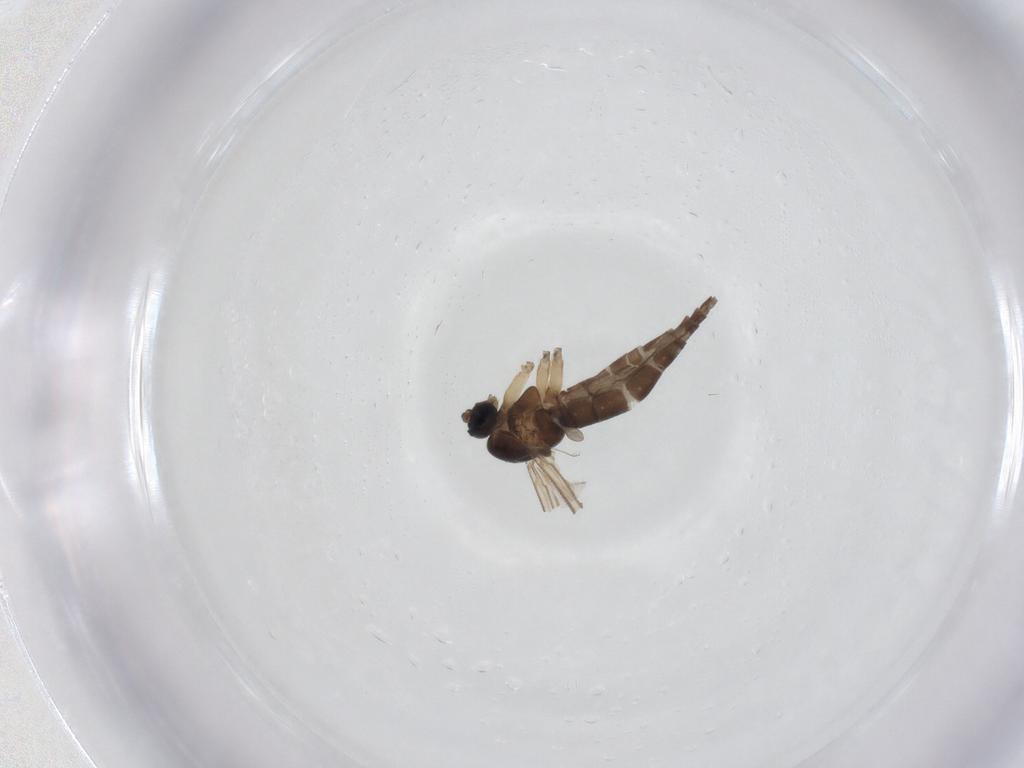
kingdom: Animalia
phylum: Arthropoda
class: Insecta
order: Diptera
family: Sciaridae
